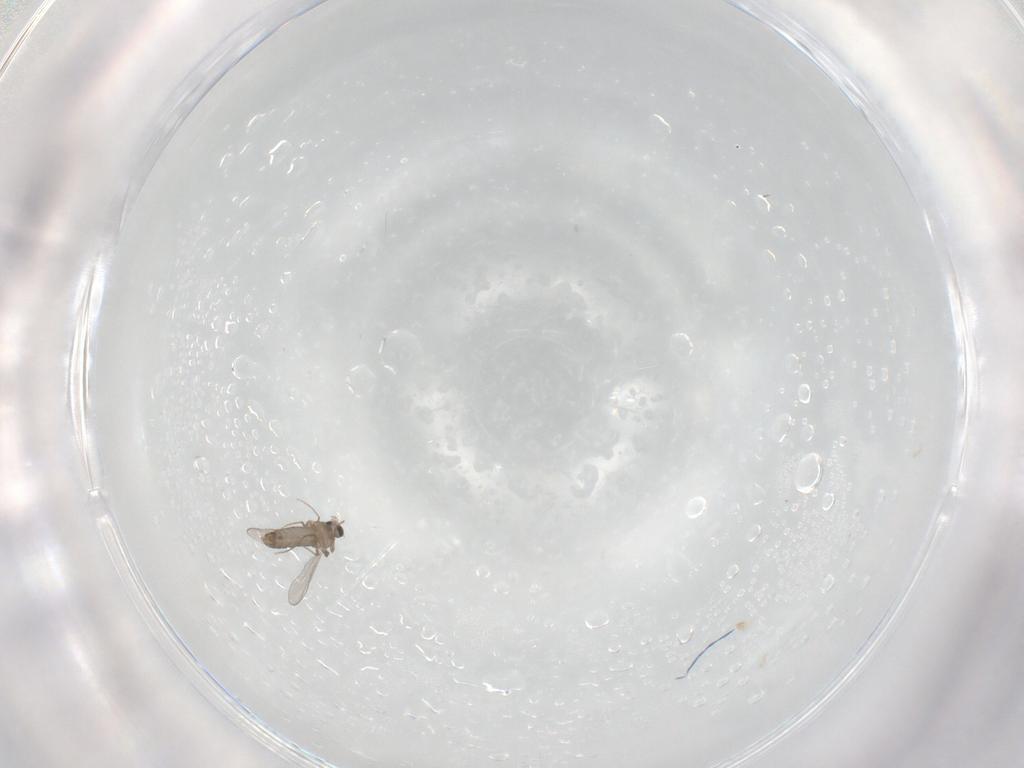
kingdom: Animalia
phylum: Arthropoda
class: Insecta
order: Diptera
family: Chironomidae
